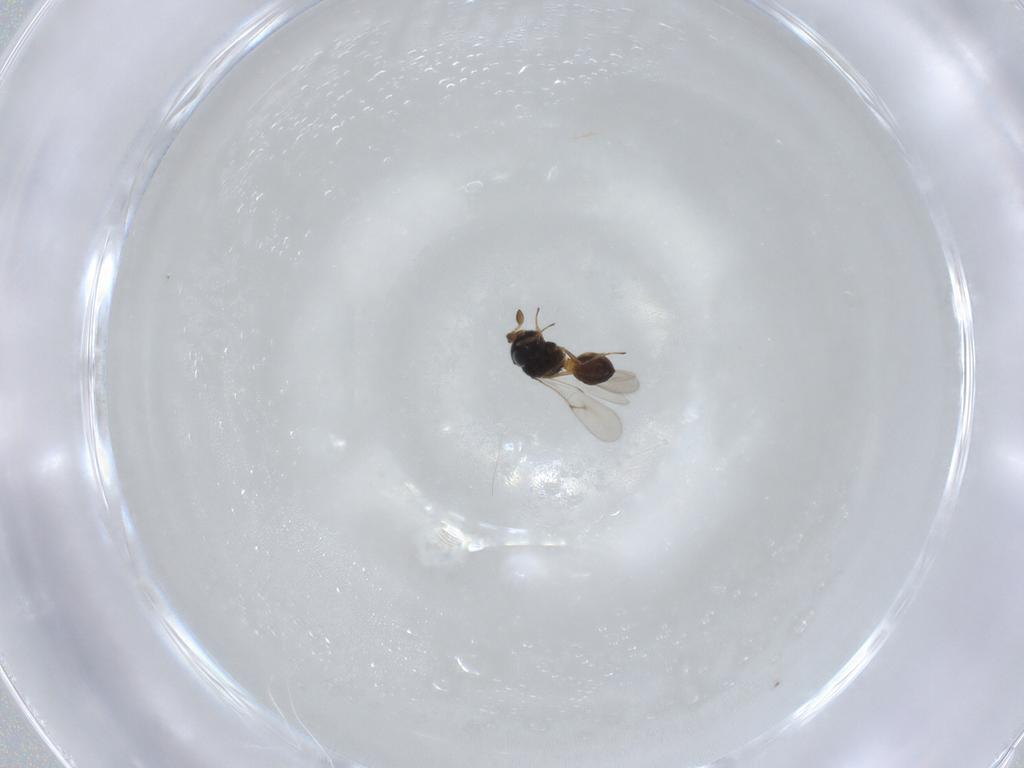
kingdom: Animalia
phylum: Arthropoda
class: Insecta
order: Hymenoptera
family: Scelionidae
